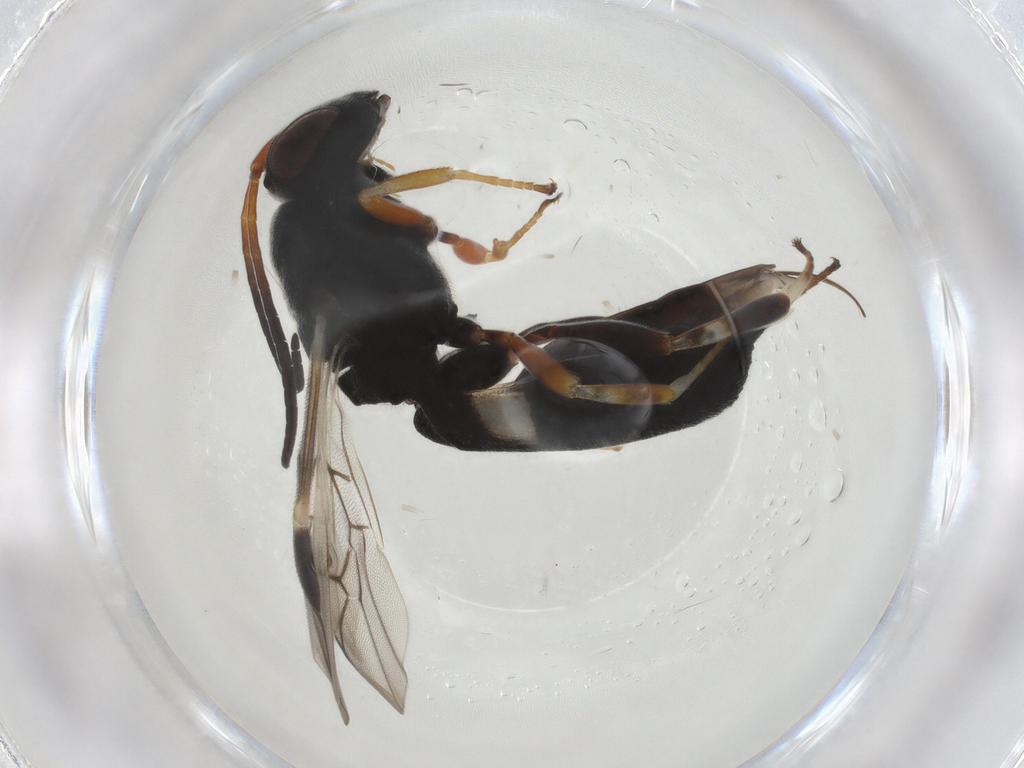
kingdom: Animalia
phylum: Arthropoda
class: Insecta
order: Hymenoptera
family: Braconidae
